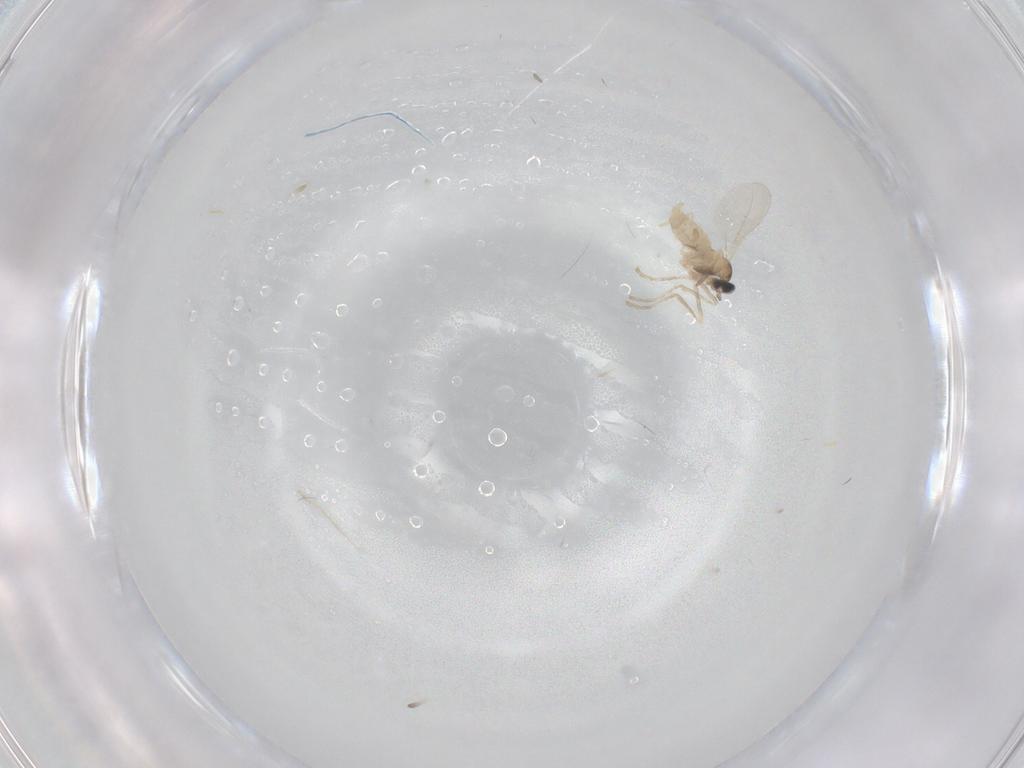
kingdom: Animalia
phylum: Arthropoda
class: Insecta
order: Diptera
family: Cecidomyiidae
